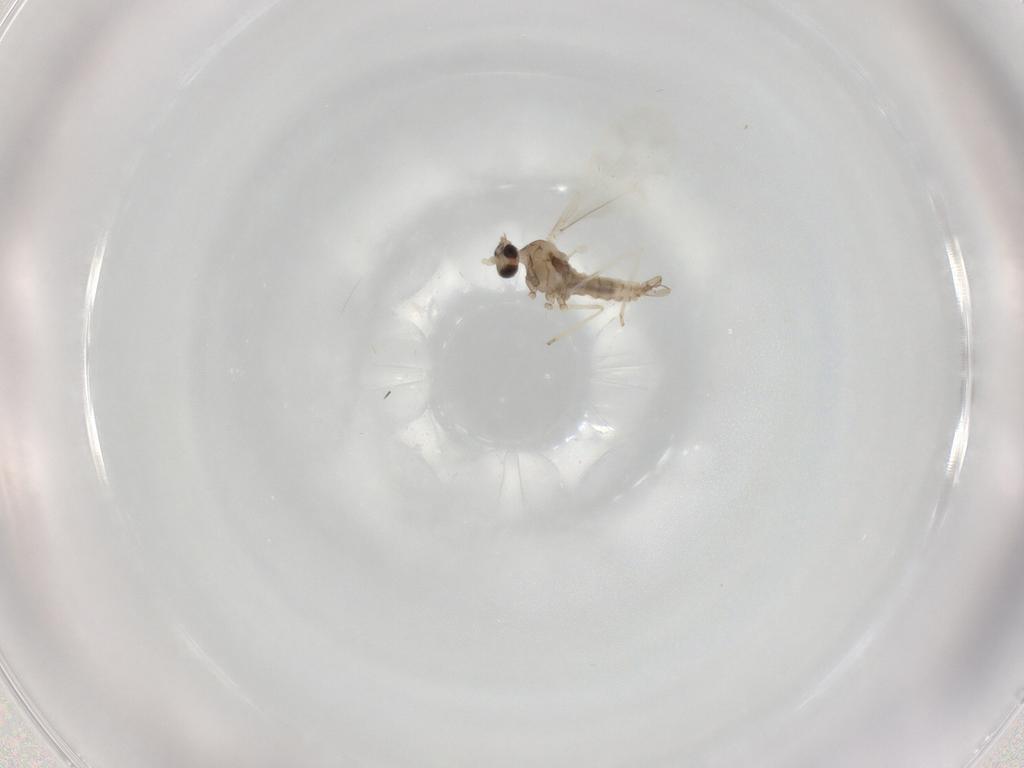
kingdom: Animalia
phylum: Arthropoda
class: Insecta
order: Diptera
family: Cecidomyiidae
